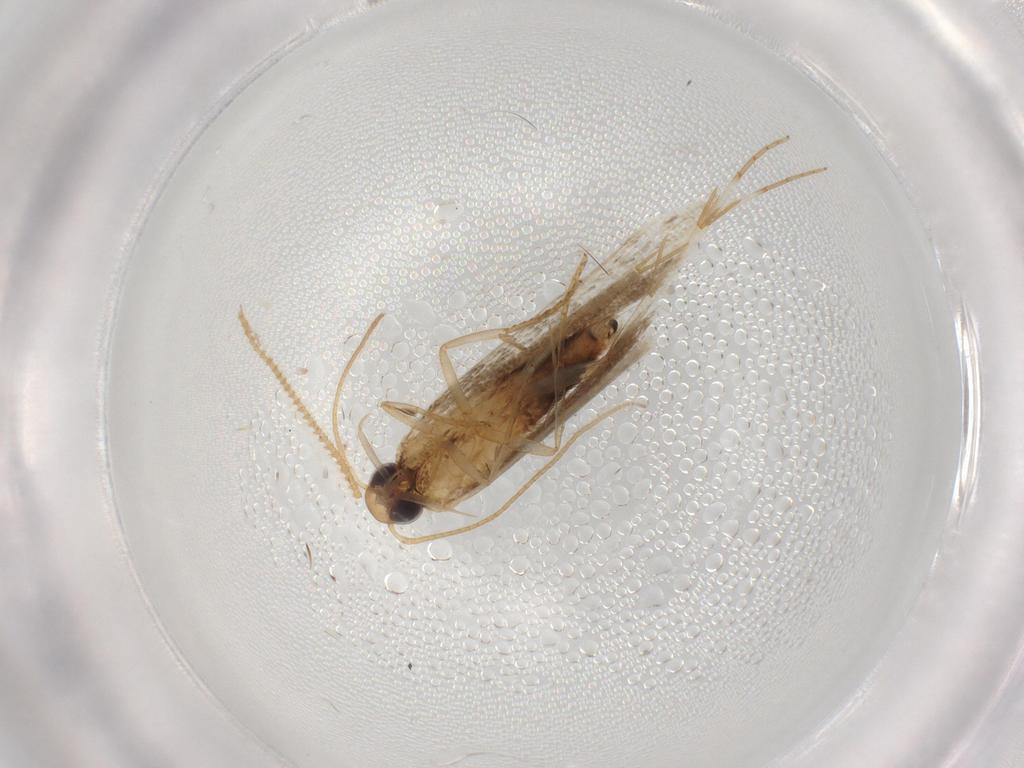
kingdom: Animalia
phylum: Arthropoda
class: Insecta
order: Lepidoptera
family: Gelechiidae
